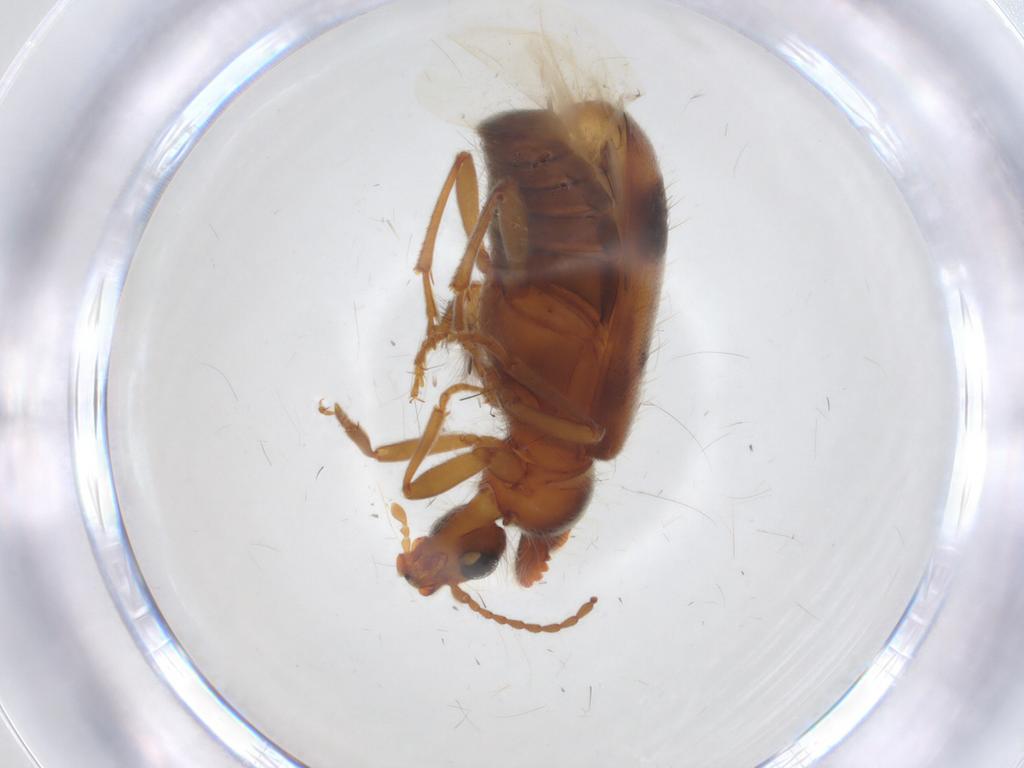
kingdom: Animalia
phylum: Arthropoda
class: Insecta
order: Coleoptera
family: Anthicidae
